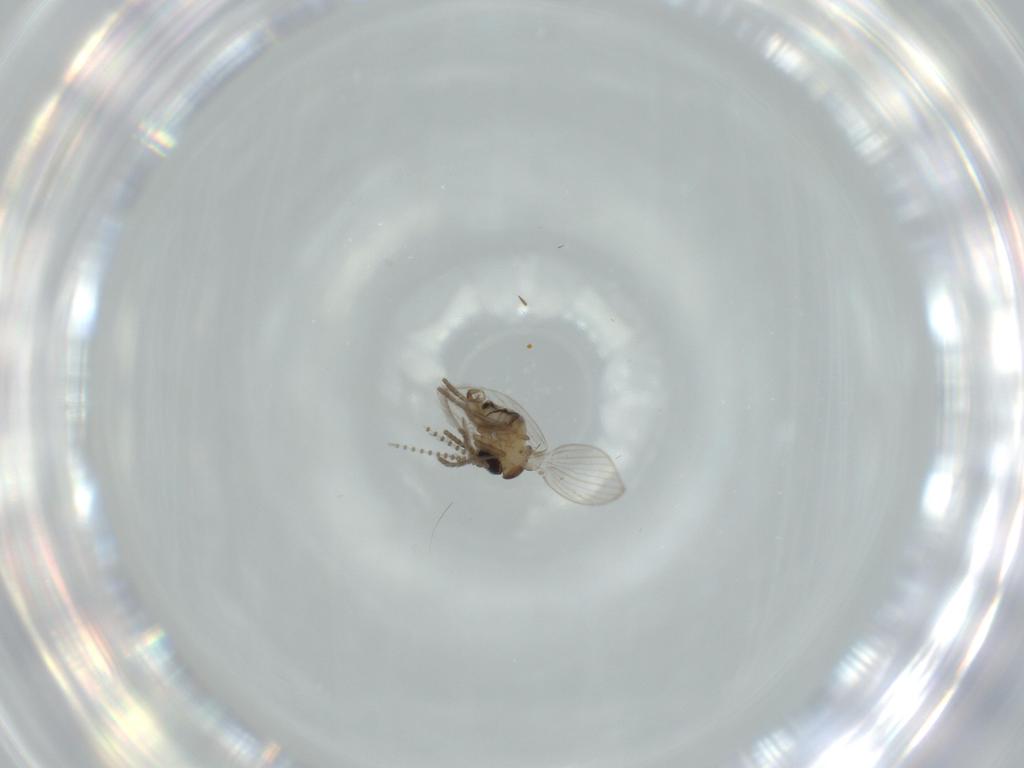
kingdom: Animalia
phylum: Arthropoda
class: Insecta
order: Diptera
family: Psychodidae
